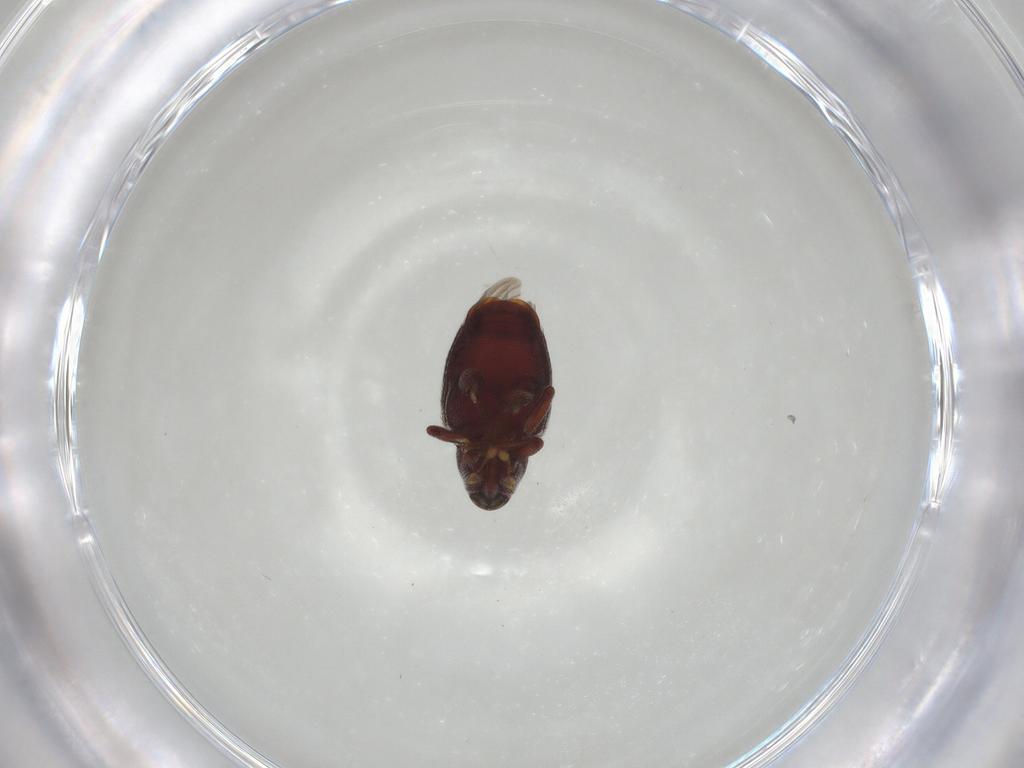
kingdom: Animalia
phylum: Arthropoda
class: Insecta
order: Coleoptera
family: Curculionidae
